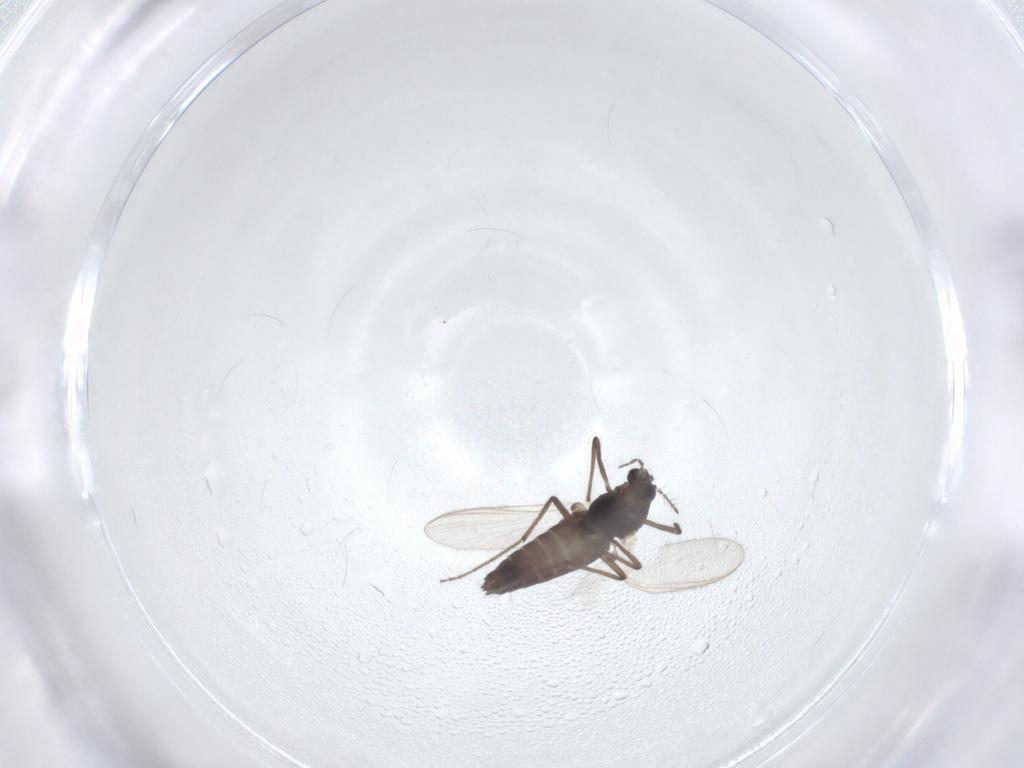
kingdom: Animalia
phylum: Arthropoda
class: Insecta
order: Diptera
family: Chironomidae
